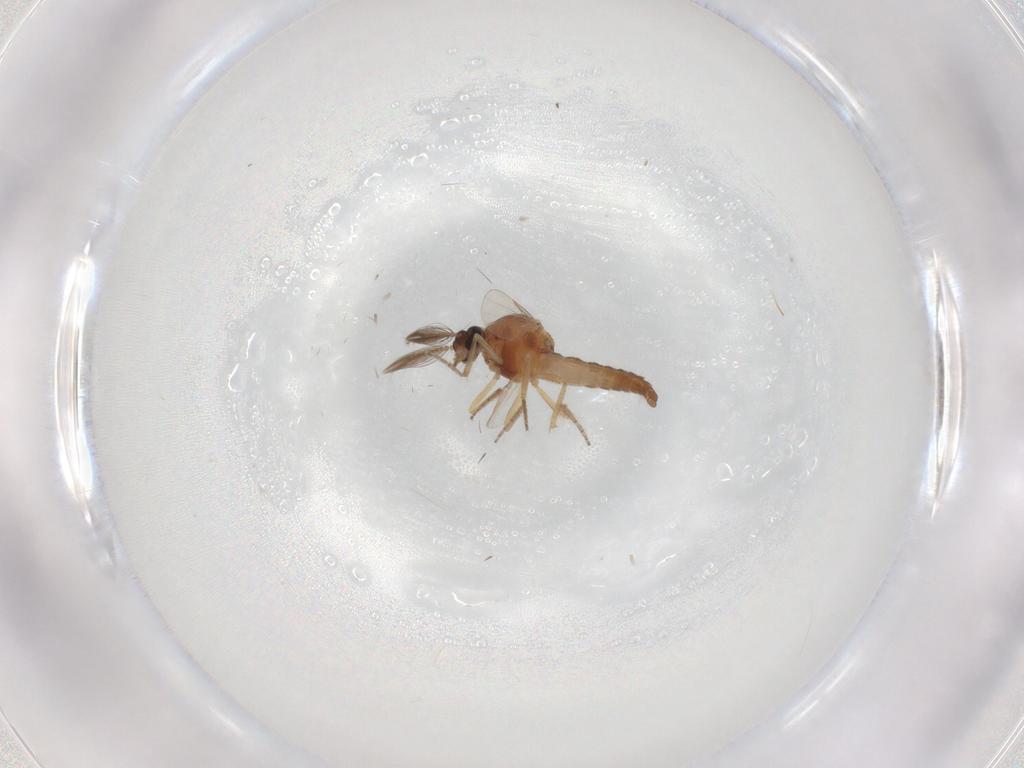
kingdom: Animalia
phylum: Arthropoda
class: Insecta
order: Diptera
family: Ceratopogonidae
